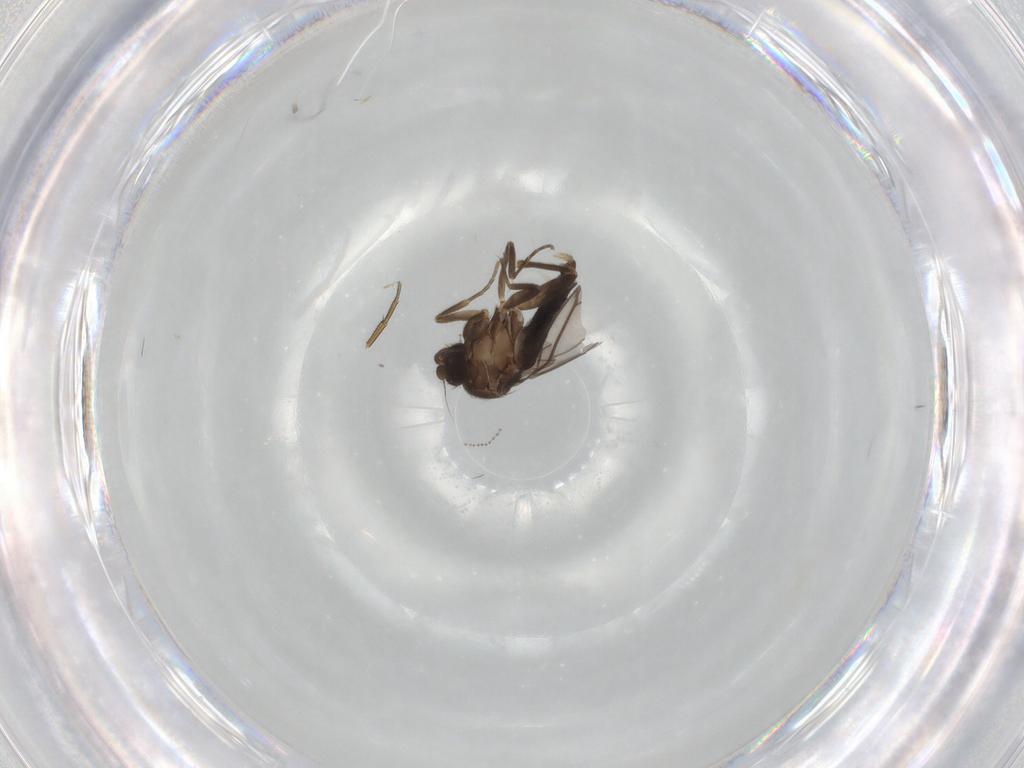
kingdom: Animalia
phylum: Arthropoda
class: Insecta
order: Diptera
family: Cecidomyiidae
